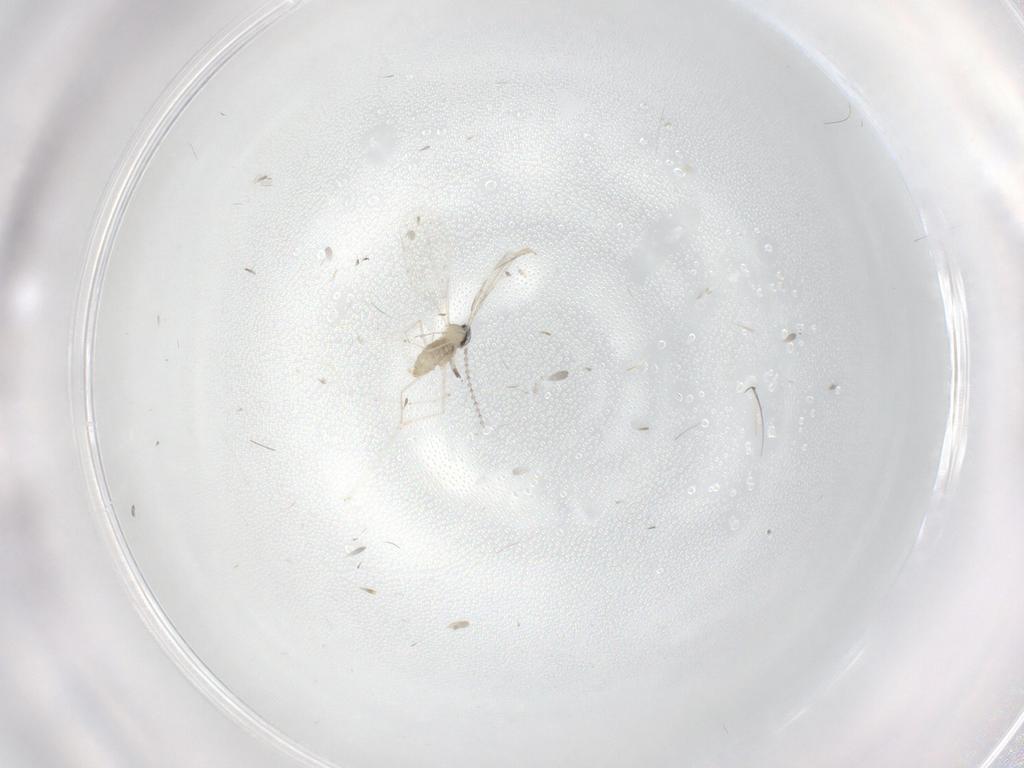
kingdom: Animalia
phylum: Arthropoda
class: Insecta
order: Diptera
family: Cecidomyiidae
